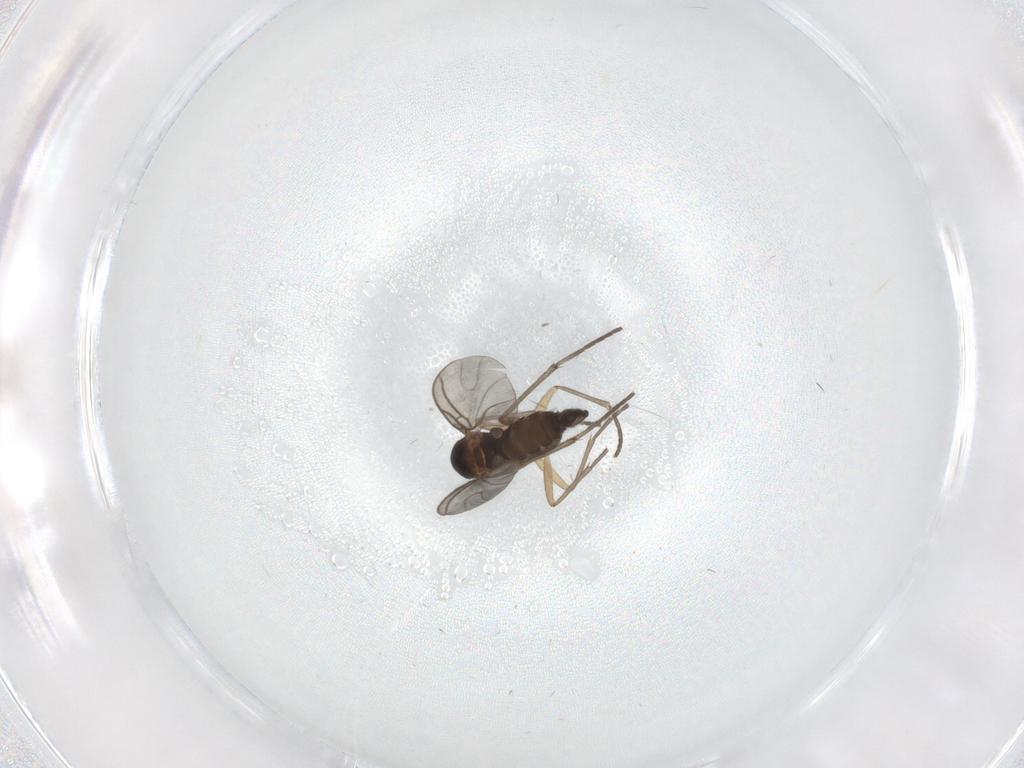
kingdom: Animalia
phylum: Arthropoda
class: Insecta
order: Diptera
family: Sciaridae
